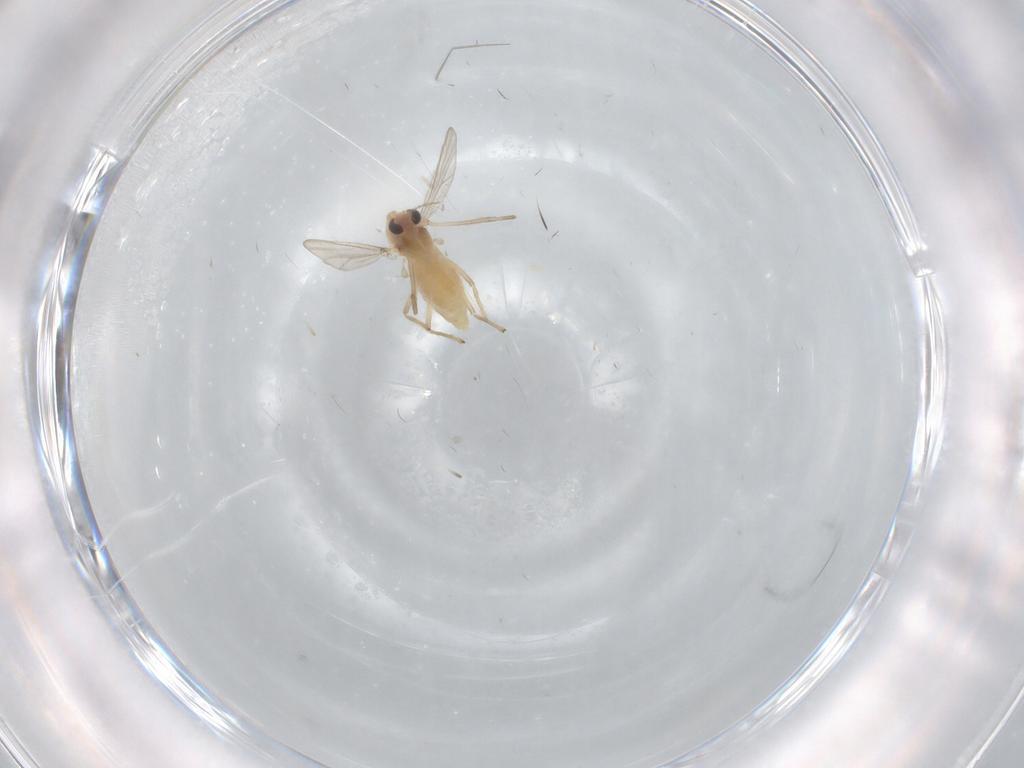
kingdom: Animalia
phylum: Arthropoda
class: Insecta
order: Diptera
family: Chironomidae
